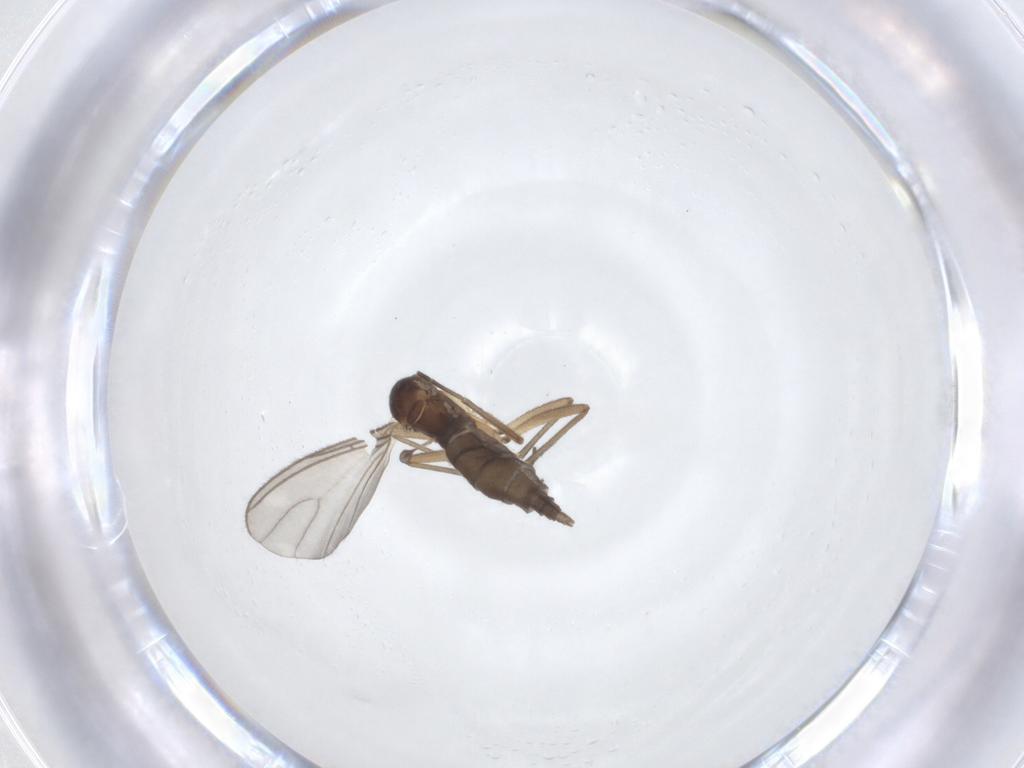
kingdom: Animalia
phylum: Arthropoda
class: Insecta
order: Diptera
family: Sciaridae
